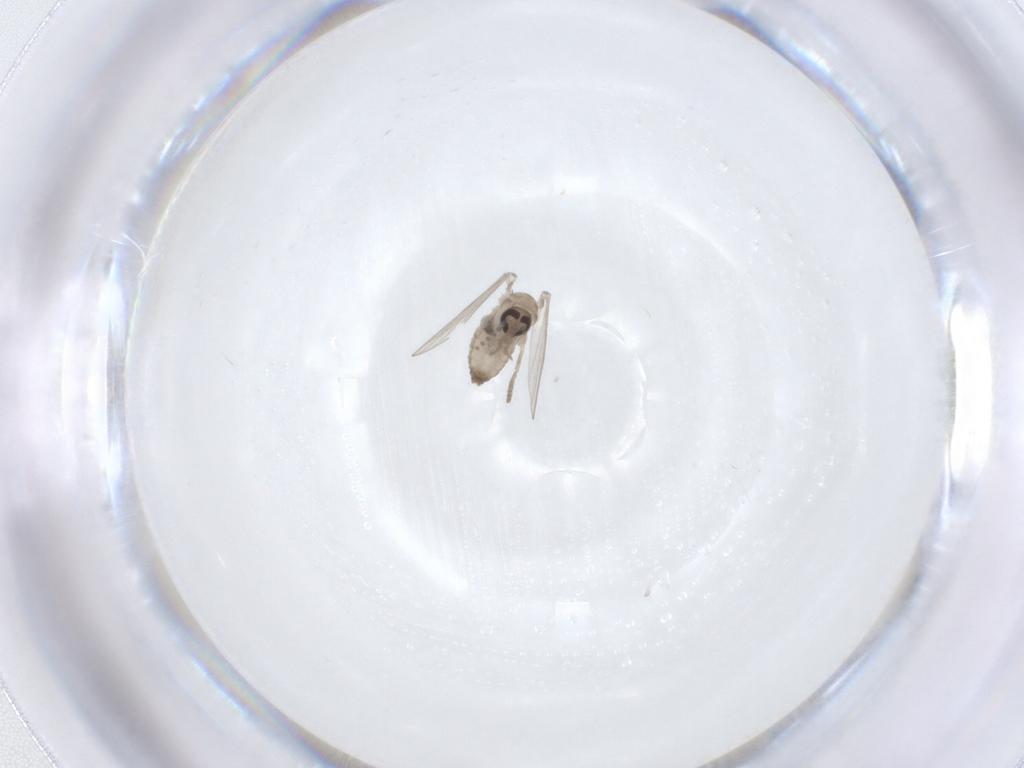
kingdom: Animalia
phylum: Arthropoda
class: Insecta
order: Diptera
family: Psychodidae
